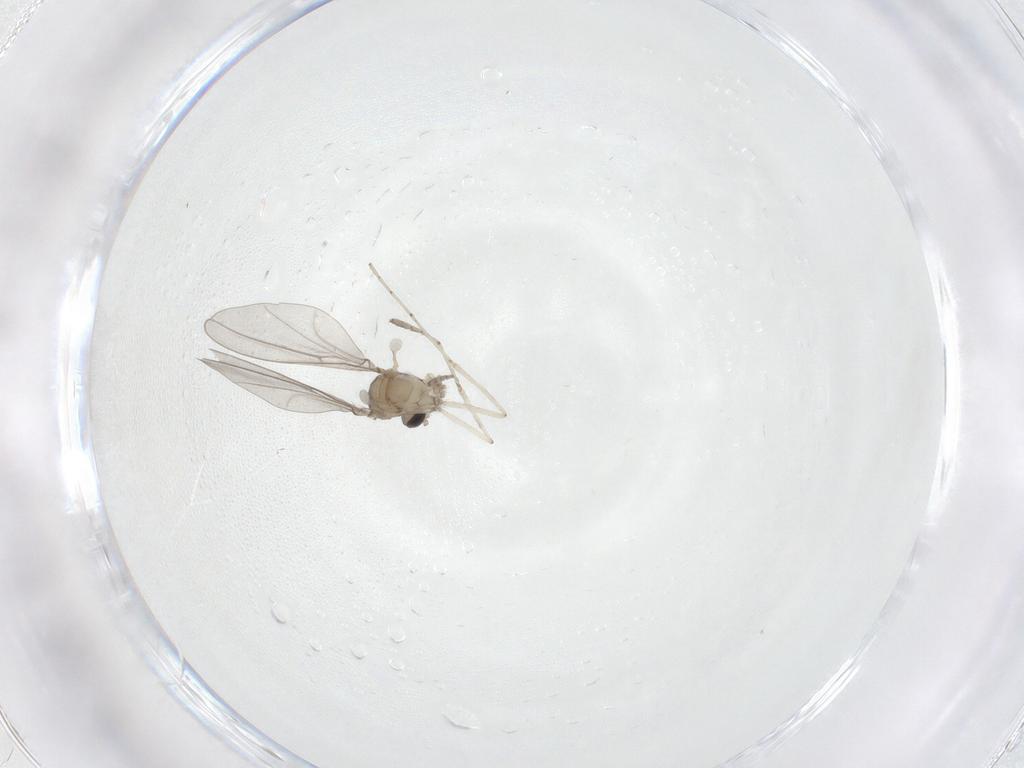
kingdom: Animalia
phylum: Arthropoda
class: Insecta
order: Diptera
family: Cecidomyiidae
